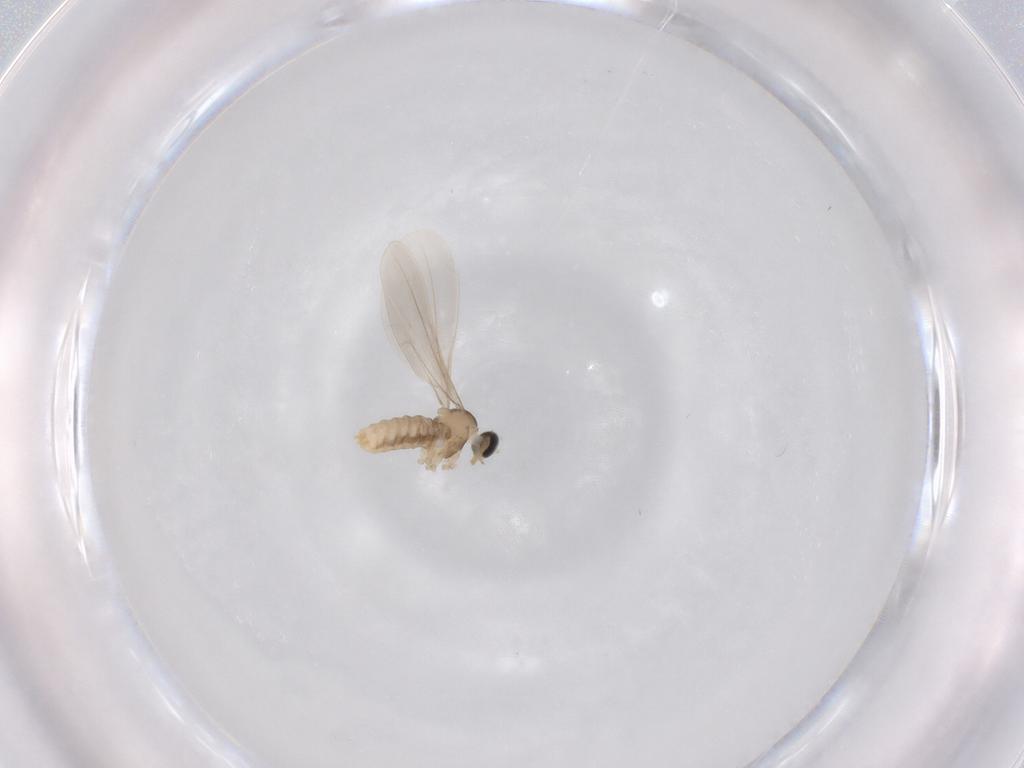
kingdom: Animalia
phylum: Arthropoda
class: Insecta
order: Diptera
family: Cecidomyiidae
